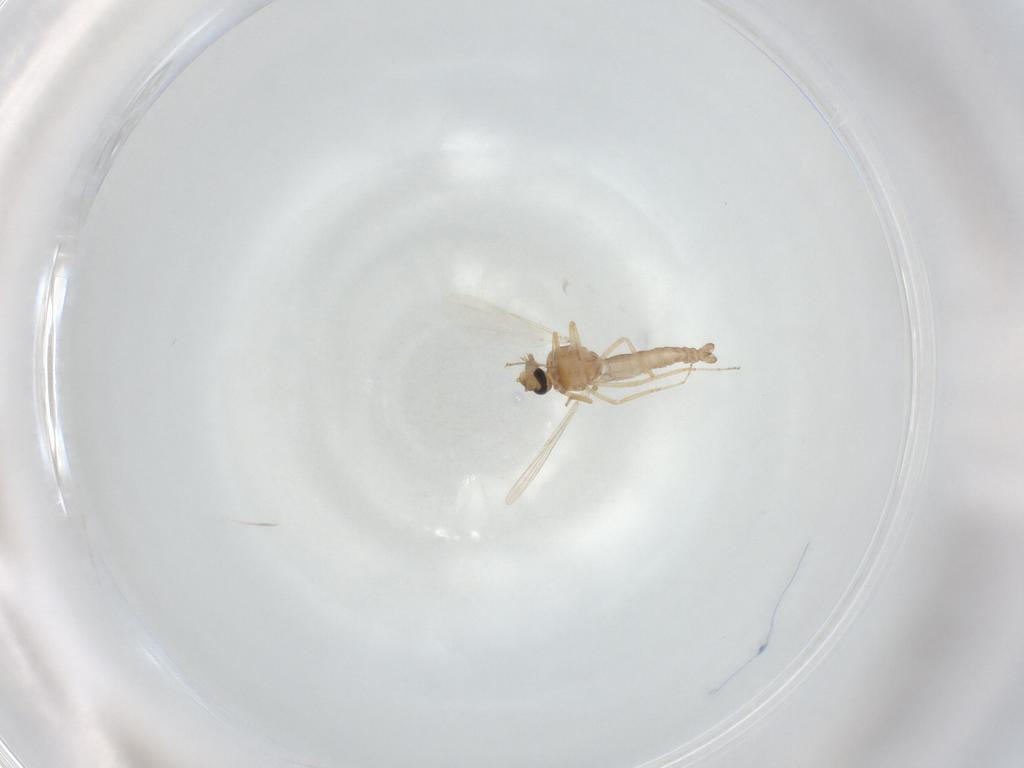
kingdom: Animalia
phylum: Arthropoda
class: Insecta
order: Diptera
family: Ceratopogonidae
